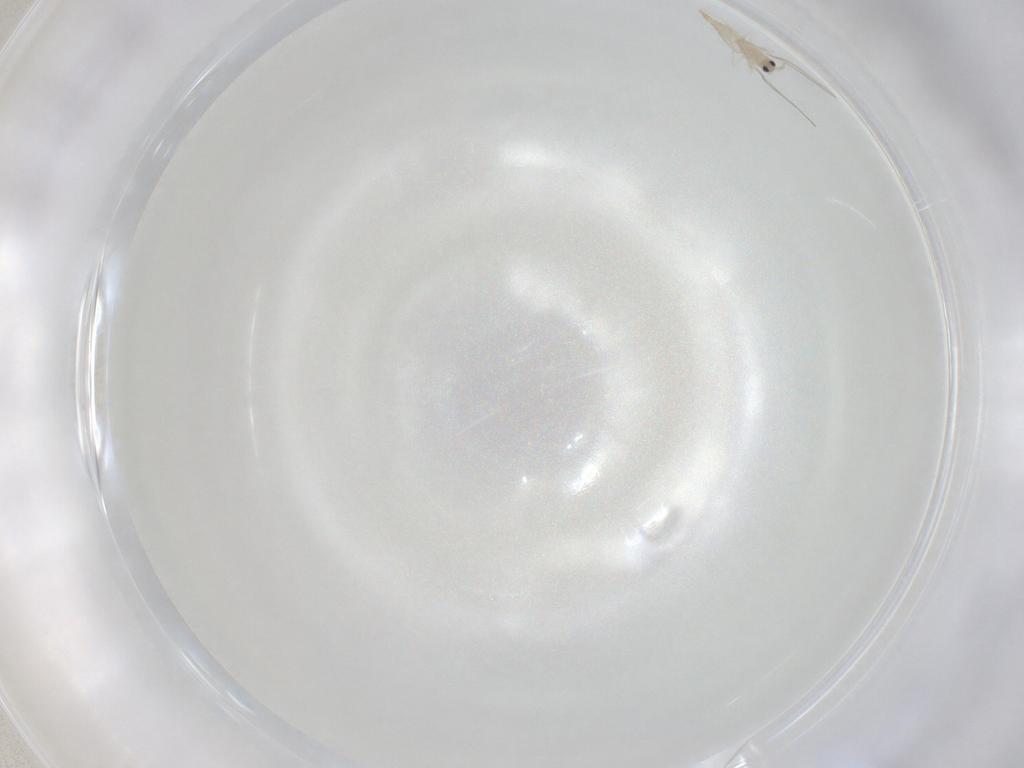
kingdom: Animalia
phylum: Arthropoda
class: Insecta
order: Diptera
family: Cecidomyiidae
